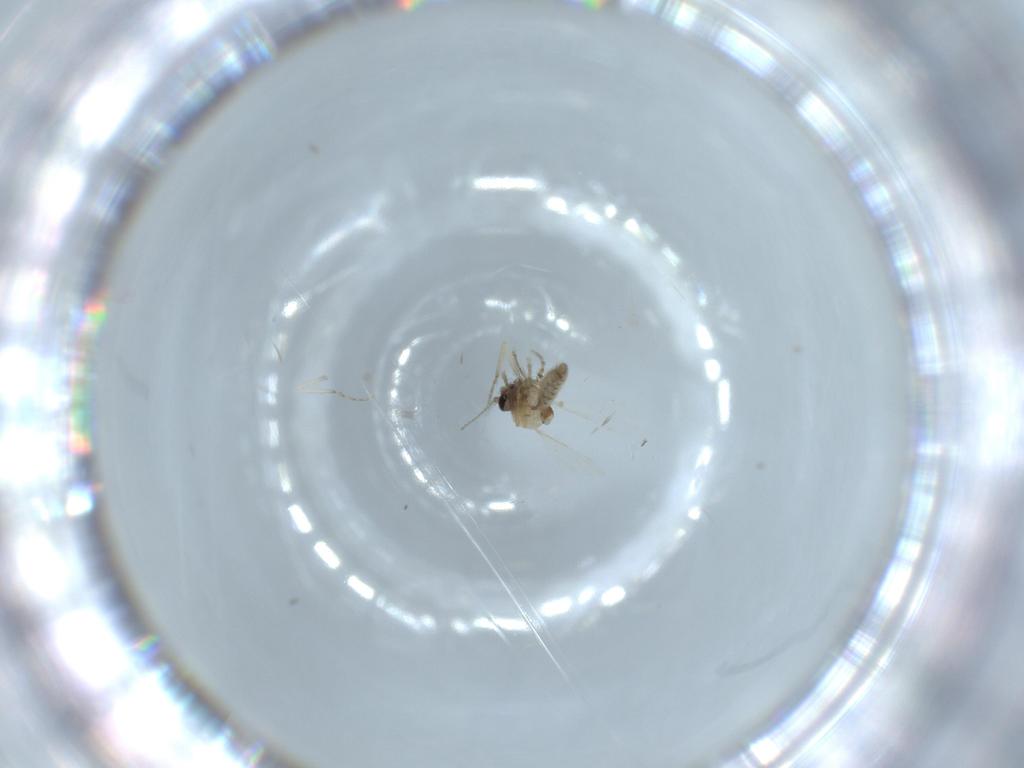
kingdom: Animalia
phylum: Arthropoda
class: Insecta
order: Diptera
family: Ceratopogonidae
